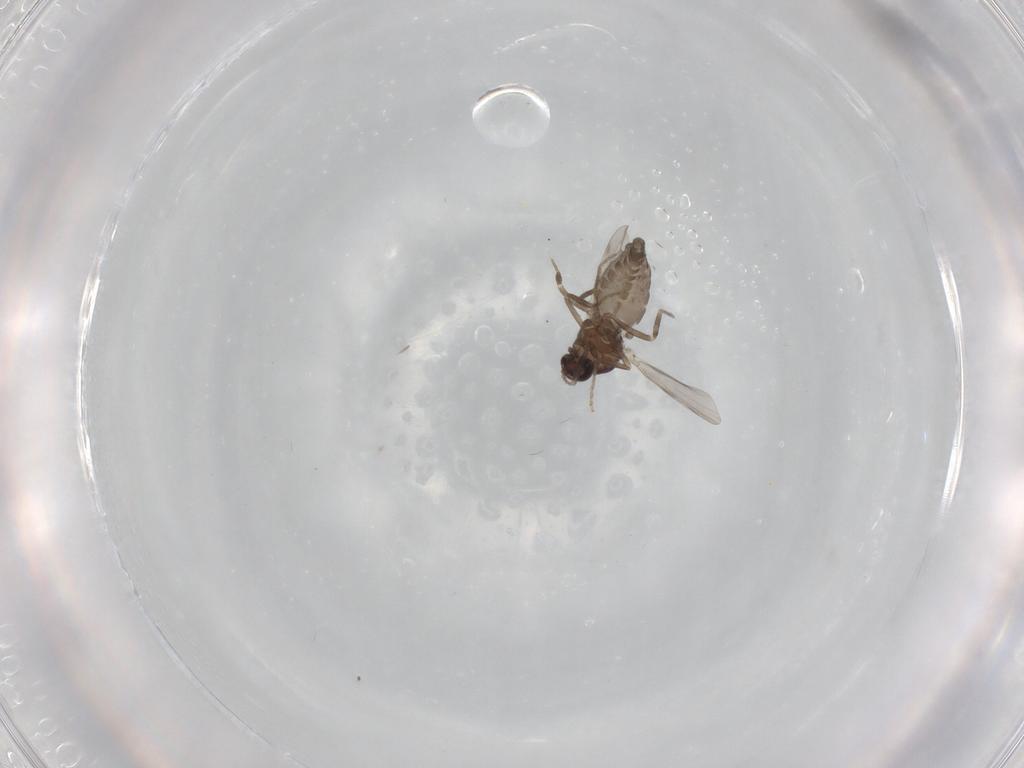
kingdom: Animalia
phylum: Arthropoda
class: Insecta
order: Diptera
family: Ceratopogonidae
